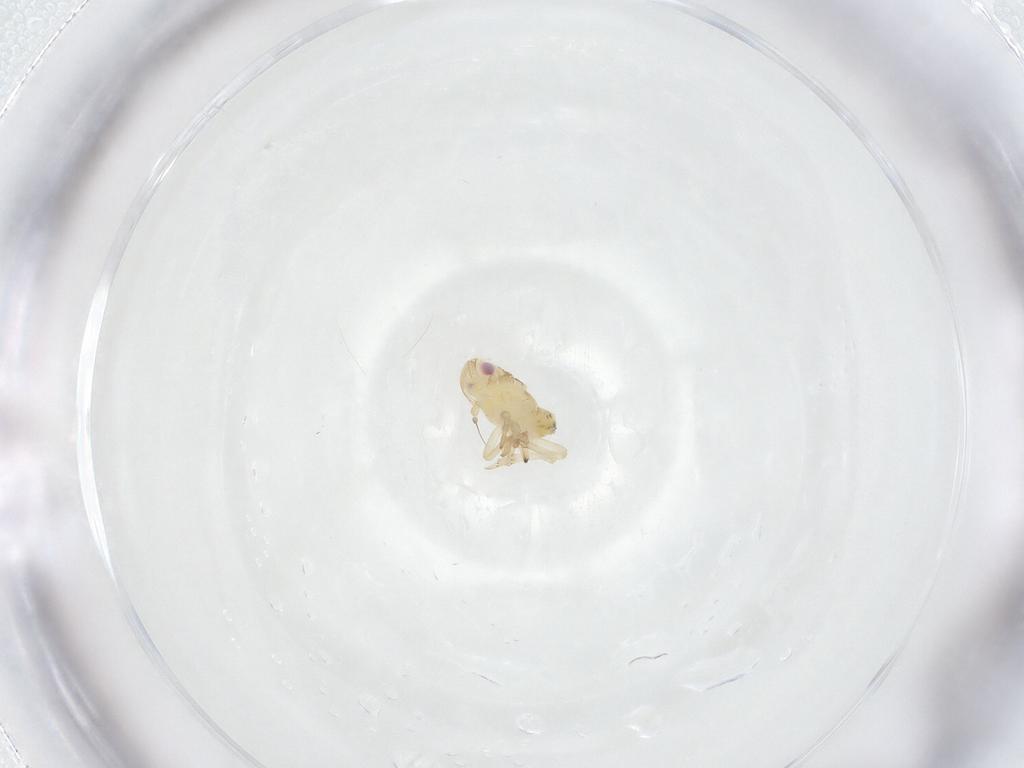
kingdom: Animalia
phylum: Arthropoda
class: Insecta
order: Hemiptera
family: Tropiduchidae
